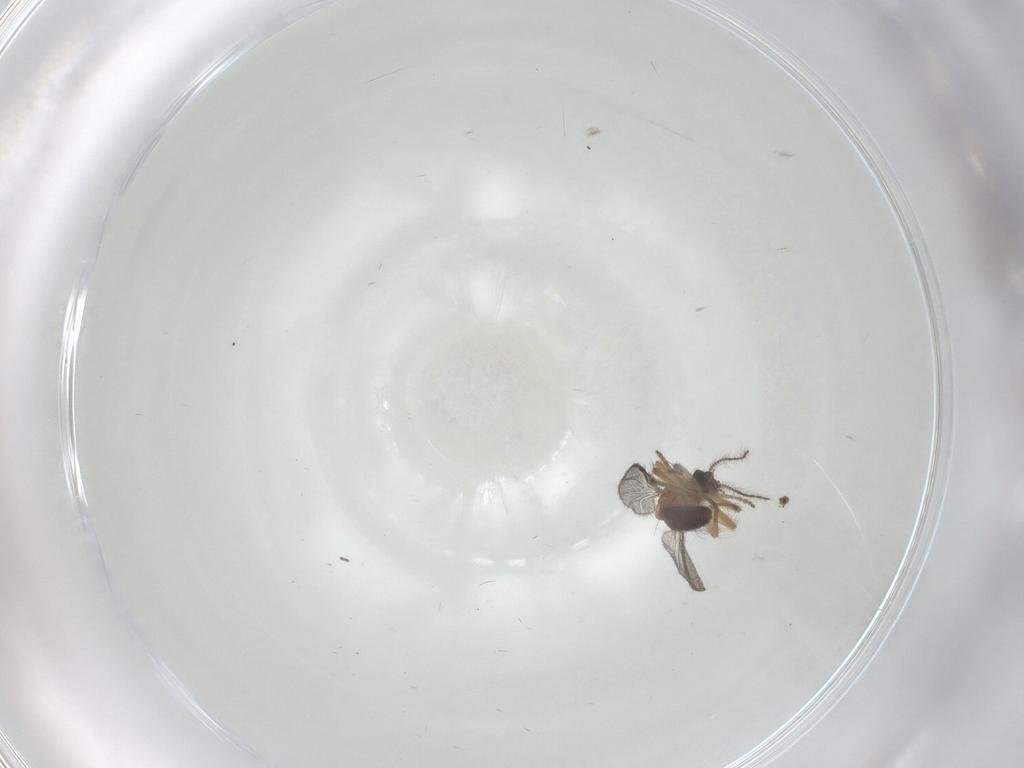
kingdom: Animalia
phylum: Arthropoda
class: Insecta
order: Diptera
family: Ceratopogonidae
